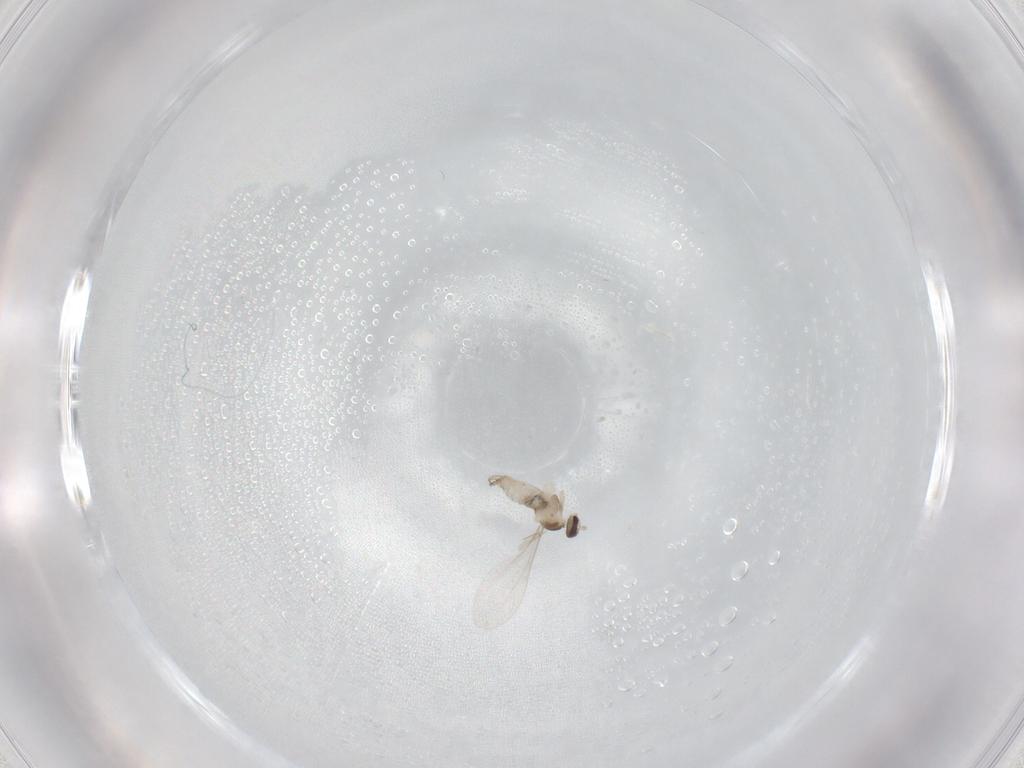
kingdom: Animalia
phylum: Arthropoda
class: Insecta
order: Diptera
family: Cecidomyiidae
